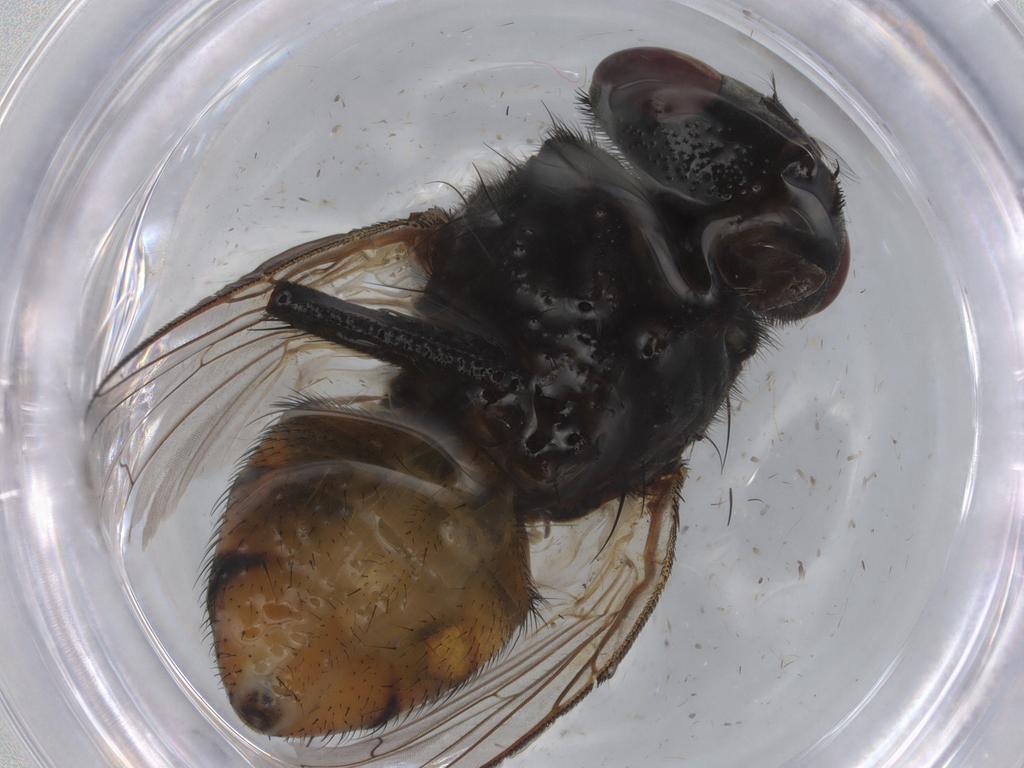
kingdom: Animalia
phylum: Arthropoda
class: Insecta
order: Diptera
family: Muscidae
